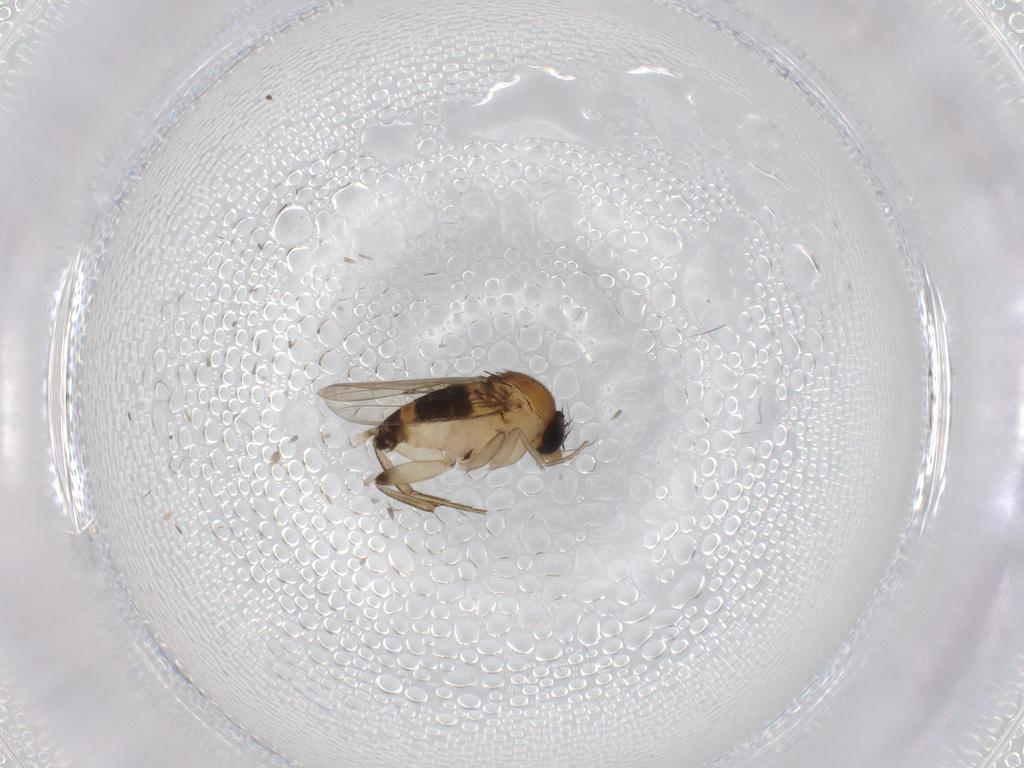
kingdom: Animalia
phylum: Arthropoda
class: Insecta
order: Diptera
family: Phoridae
